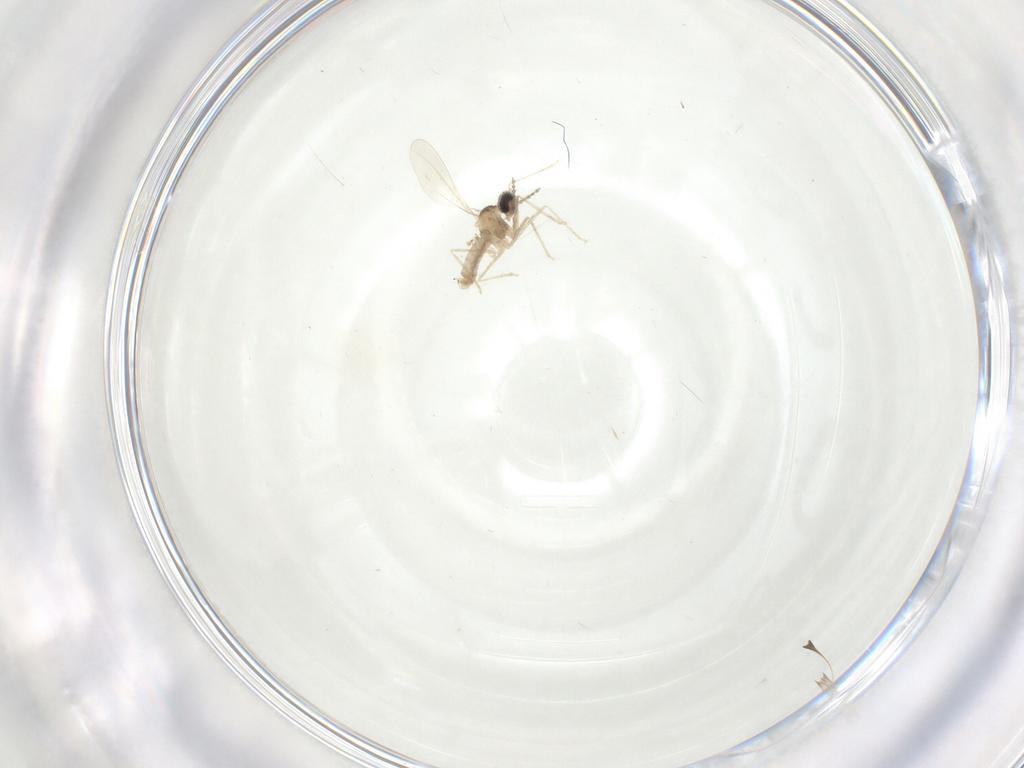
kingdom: Animalia
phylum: Arthropoda
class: Insecta
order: Diptera
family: Cecidomyiidae
